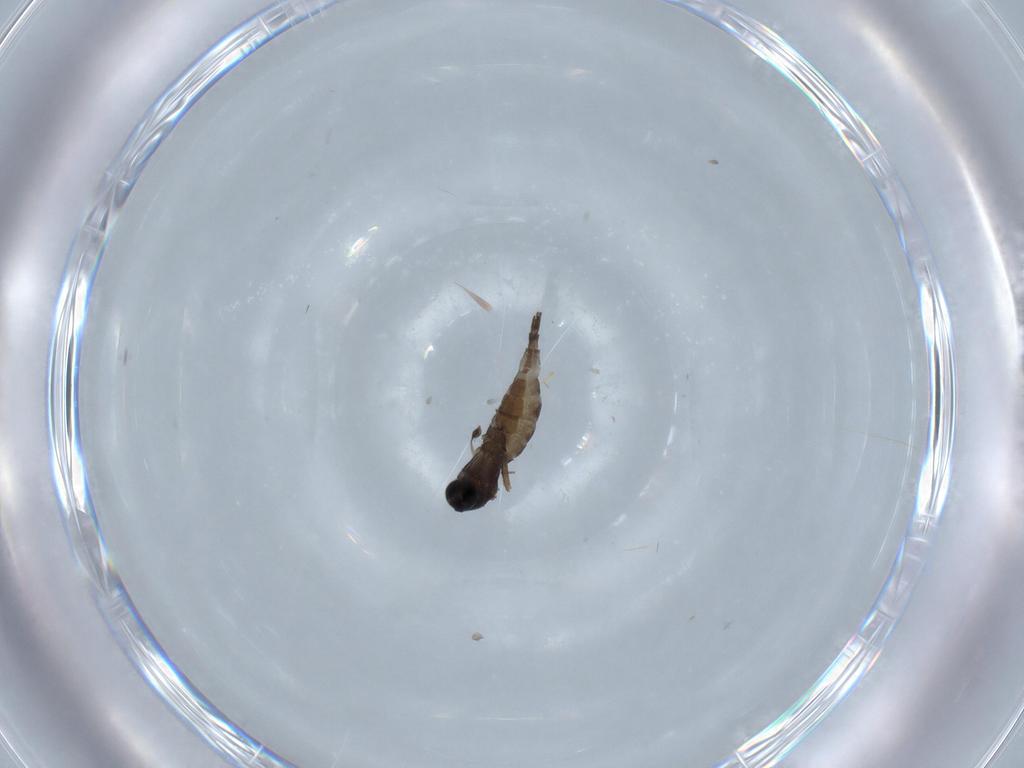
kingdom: Animalia
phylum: Arthropoda
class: Insecta
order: Diptera
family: Sciaridae
